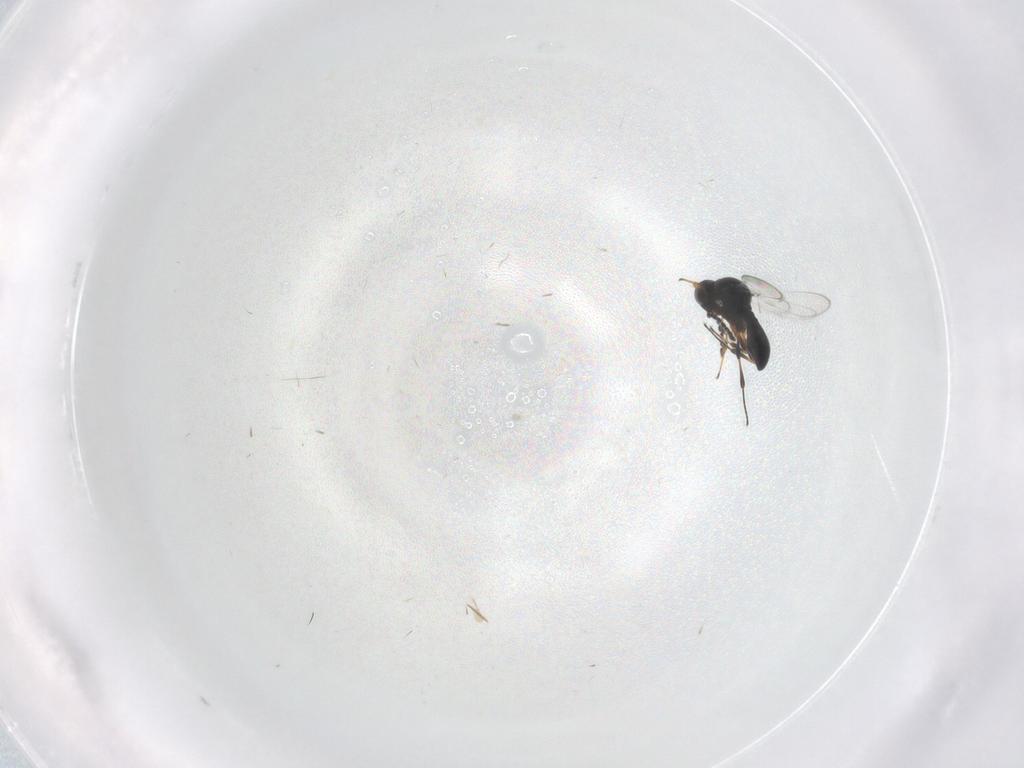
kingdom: Animalia
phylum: Arthropoda
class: Insecta
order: Hymenoptera
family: Platygastridae
